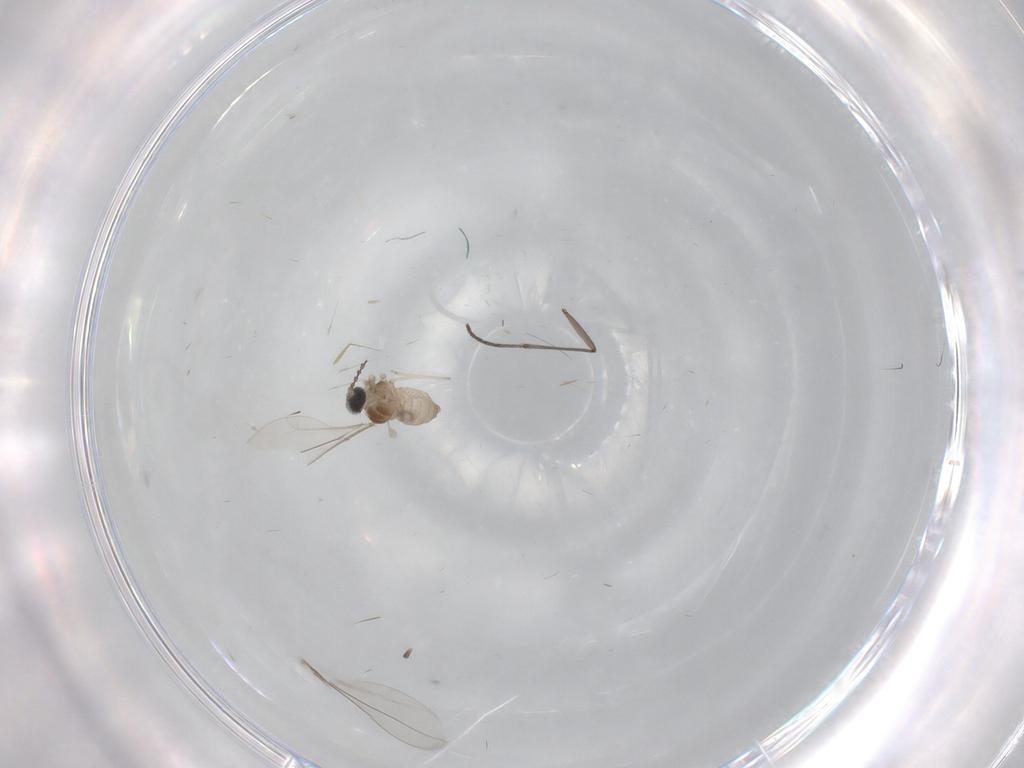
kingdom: Animalia
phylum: Arthropoda
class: Insecta
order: Diptera
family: Cecidomyiidae
